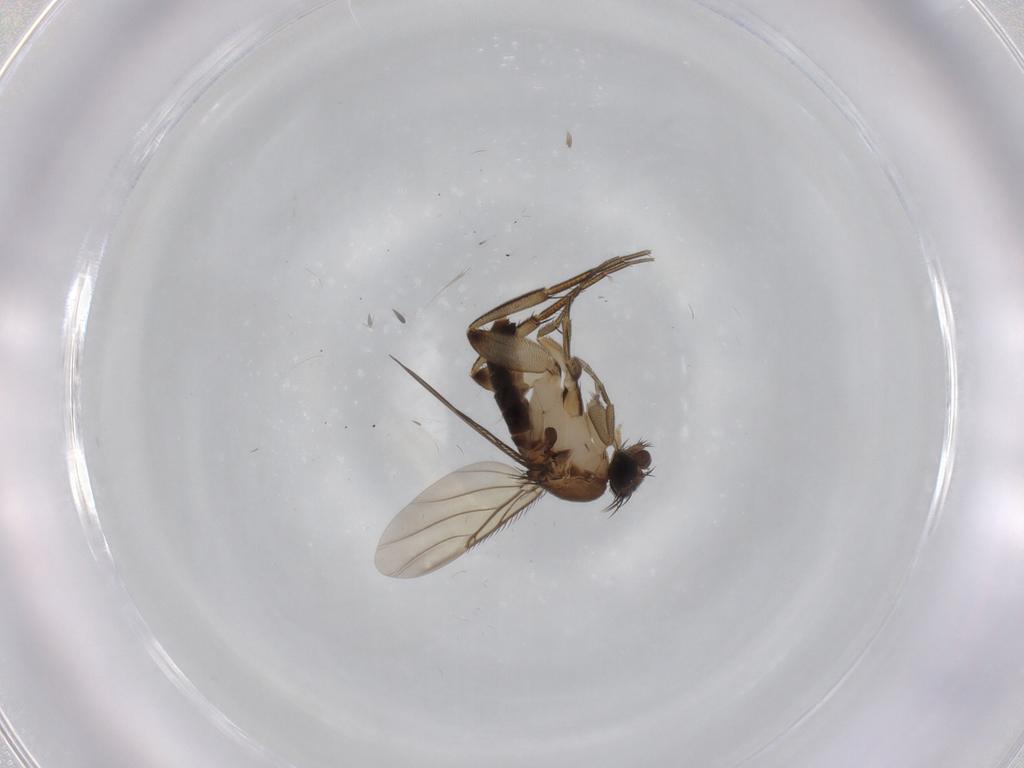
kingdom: Animalia
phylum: Arthropoda
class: Insecta
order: Diptera
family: Phoridae
